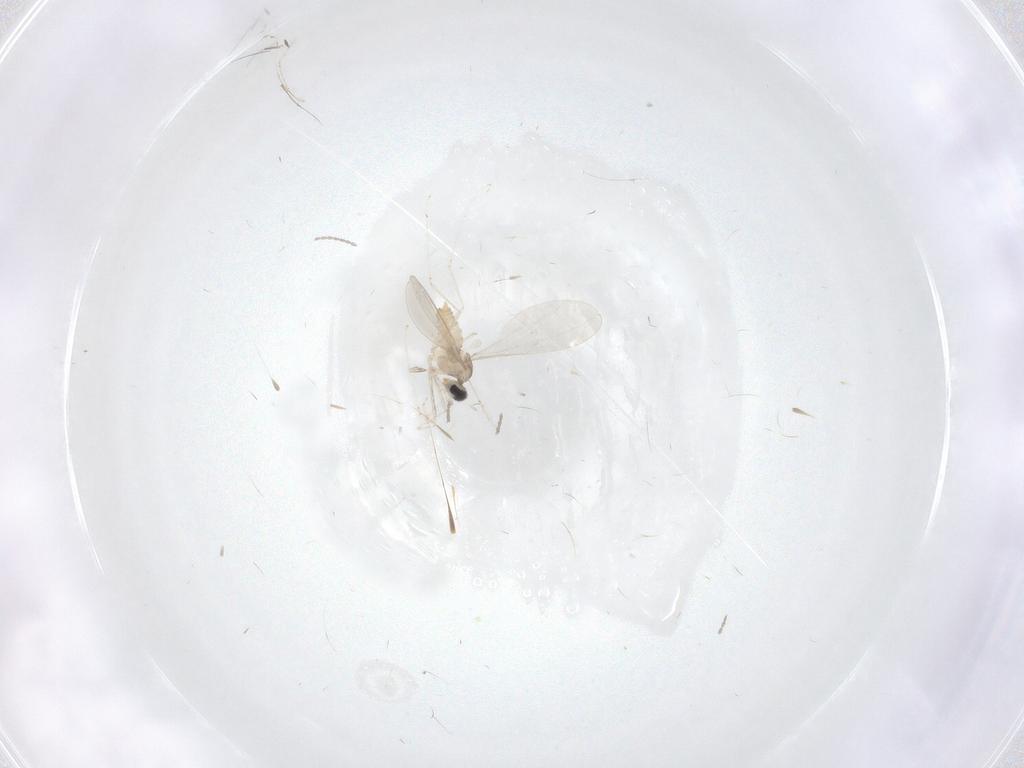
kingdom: Animalia
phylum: Arthropoda
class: Insecta
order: Diptera
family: Cecidomyiidae
